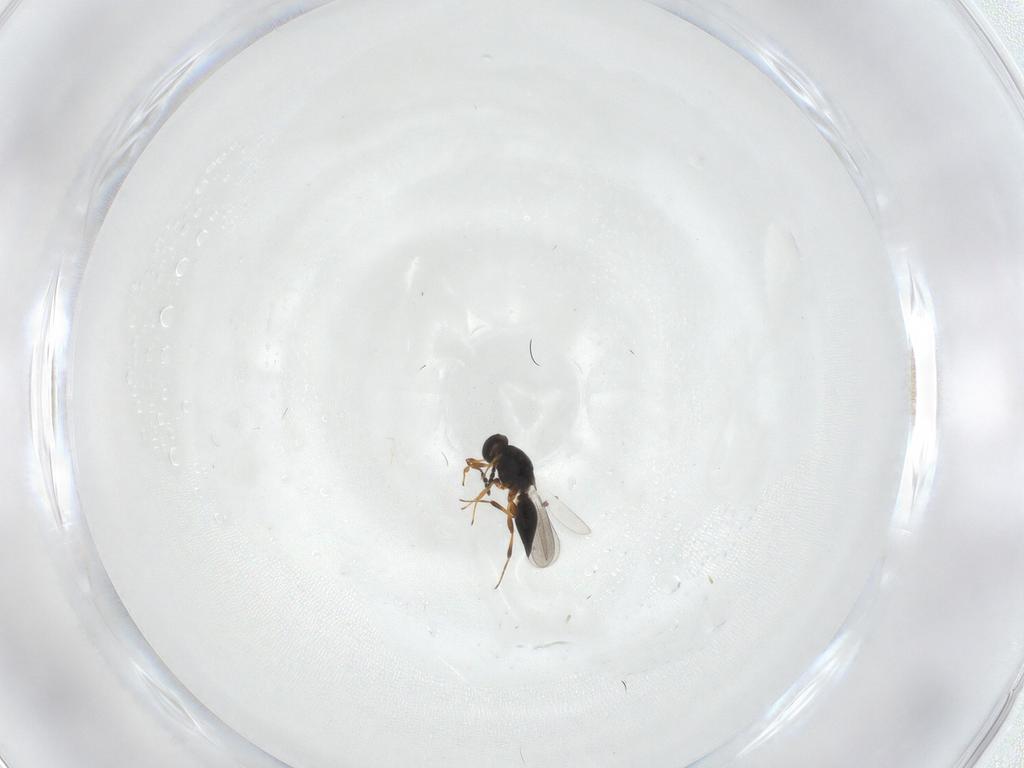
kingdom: Animalia
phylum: Arthropoda
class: Insecta
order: Hymenoptera
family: Platygastridae
